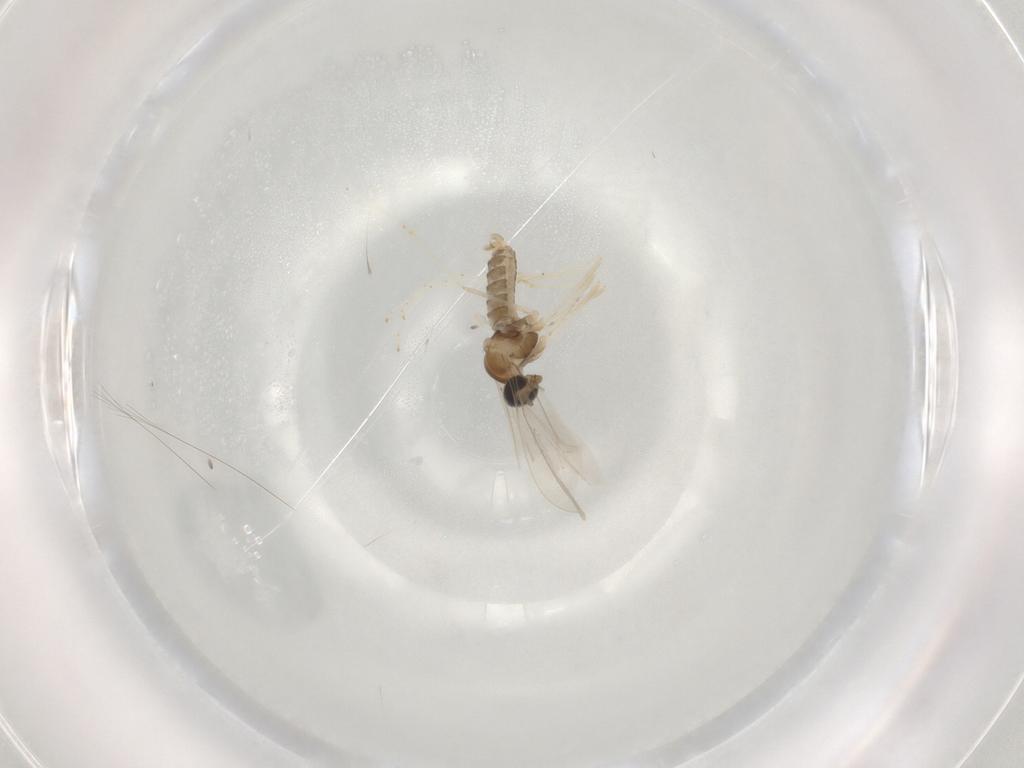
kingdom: Animalia
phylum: Arthropoda
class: Insecta
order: Diptera
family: Cecidomyiidae
